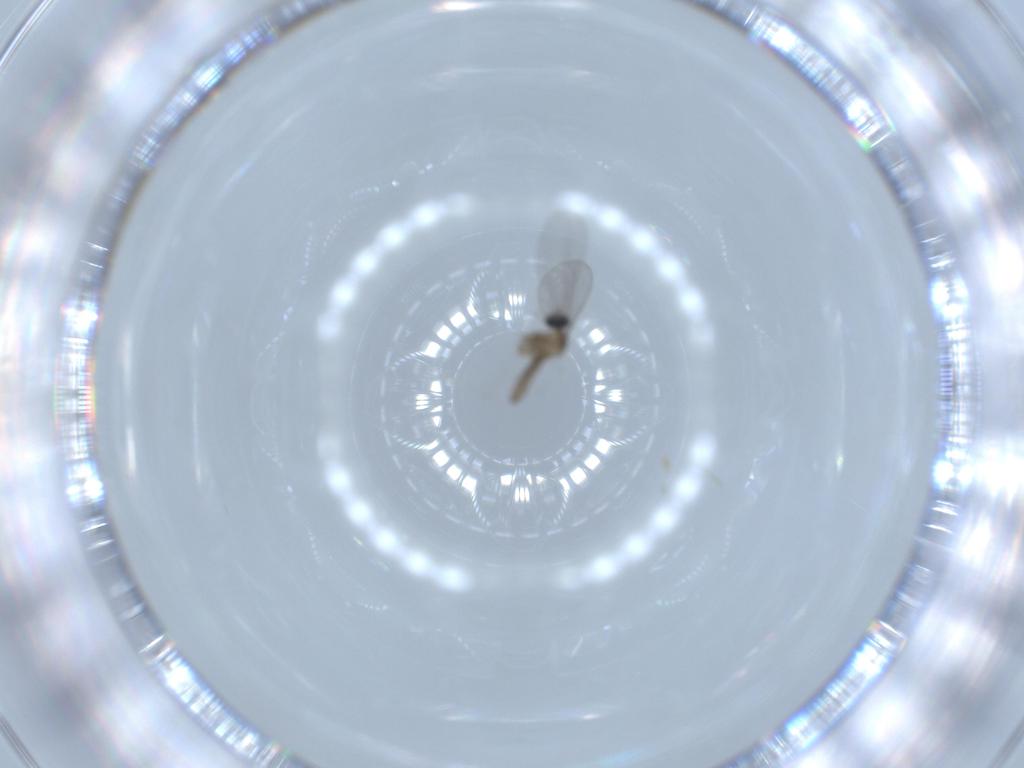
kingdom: Animalia
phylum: Arthropoda
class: Insecta
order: Diptera
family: Cecidomyiidae
